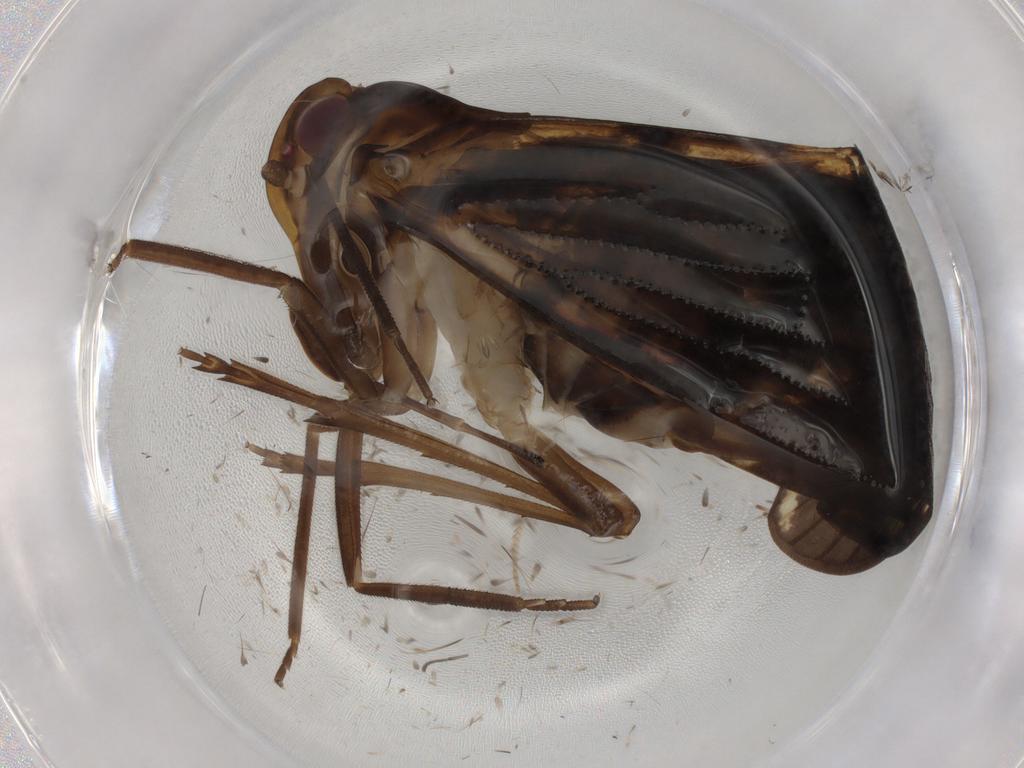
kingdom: Animalia
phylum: Arthropoda
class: Insecta
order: Hemiptera
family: Cixiidae
